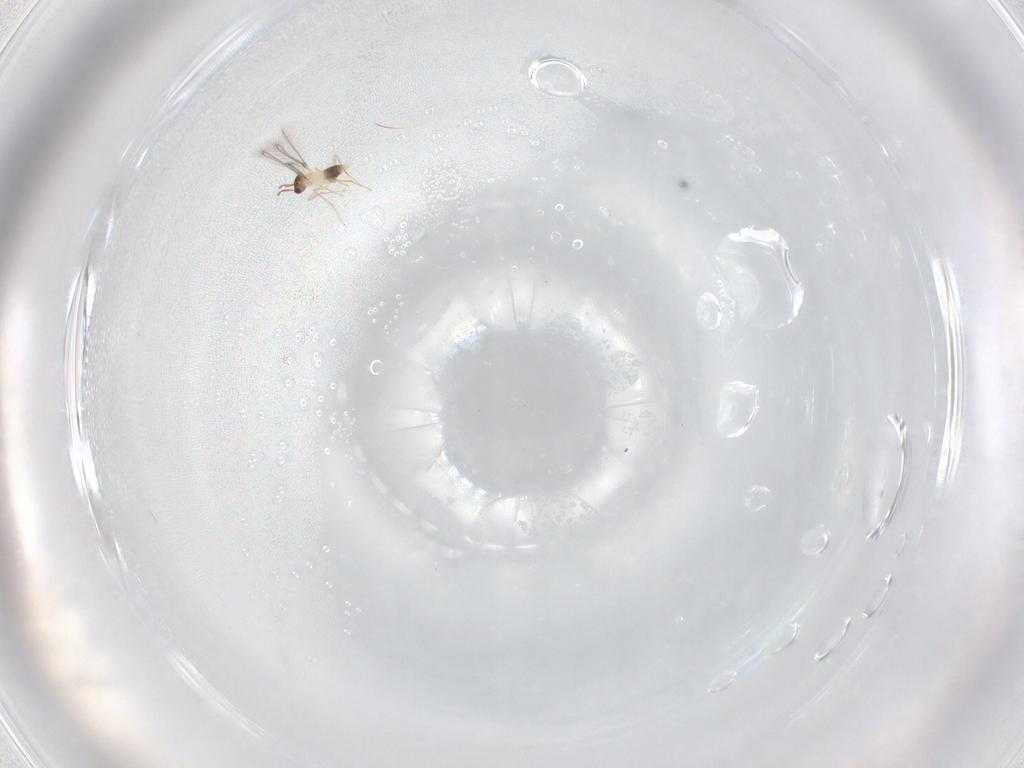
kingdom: Animalia
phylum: Arthropoda
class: Insecta
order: Hymenoptera
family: Mymaridae
